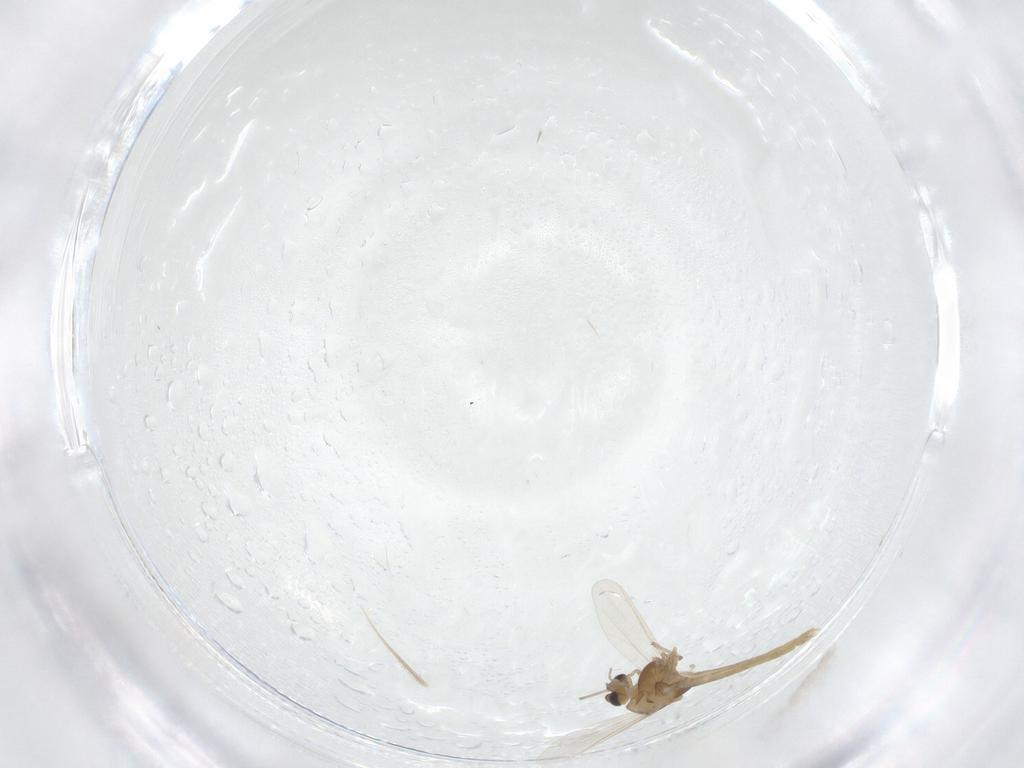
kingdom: Animalia
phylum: Arthropoda
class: Insecta
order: Diptera
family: Chironomidae
